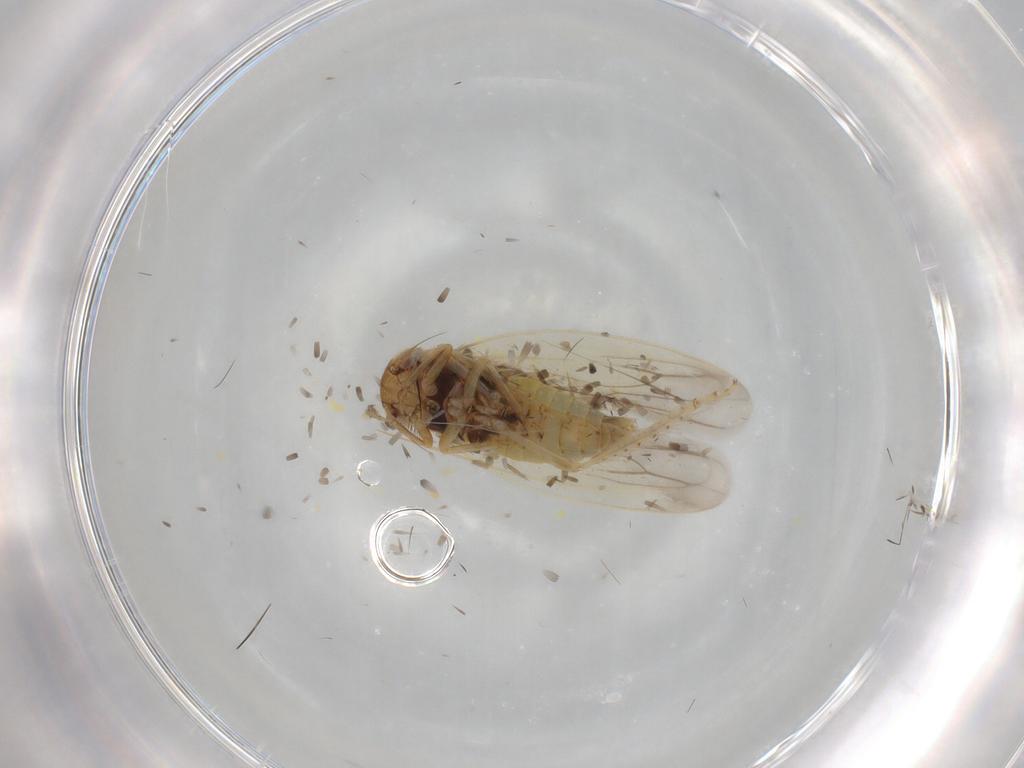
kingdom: Animalia
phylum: Arthropoda
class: Insecta
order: Hemiptera
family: Cicadellidae
